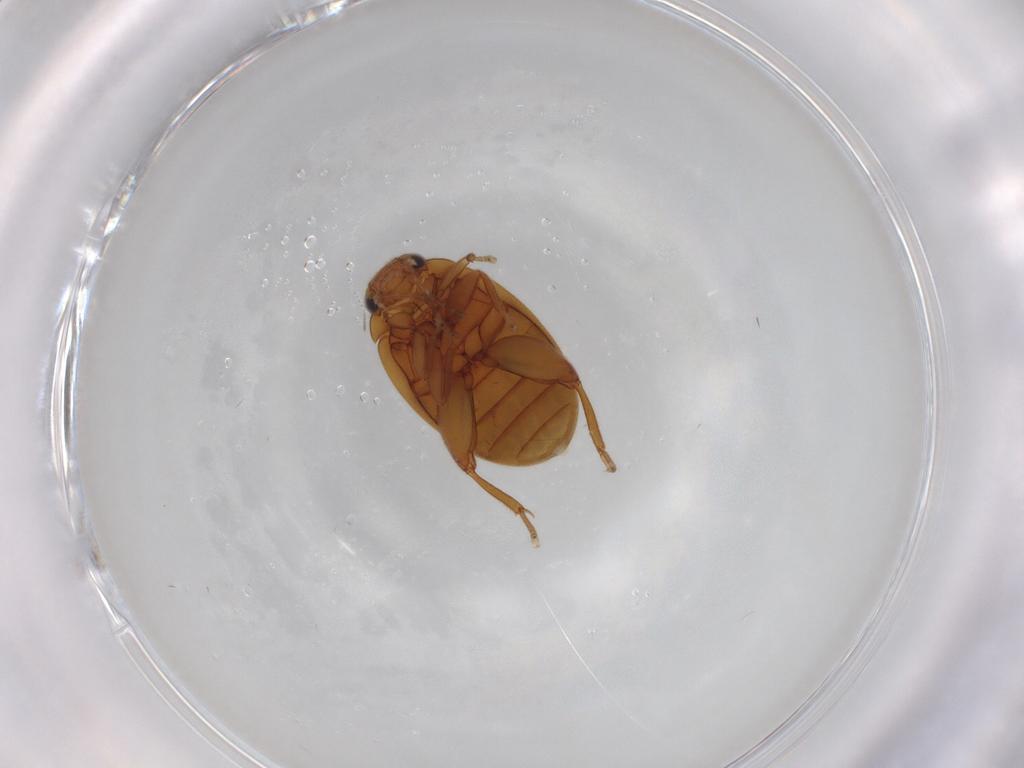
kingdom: Animalia
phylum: Arthropoda
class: Insecta
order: Coleoptera
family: Scirtidae
